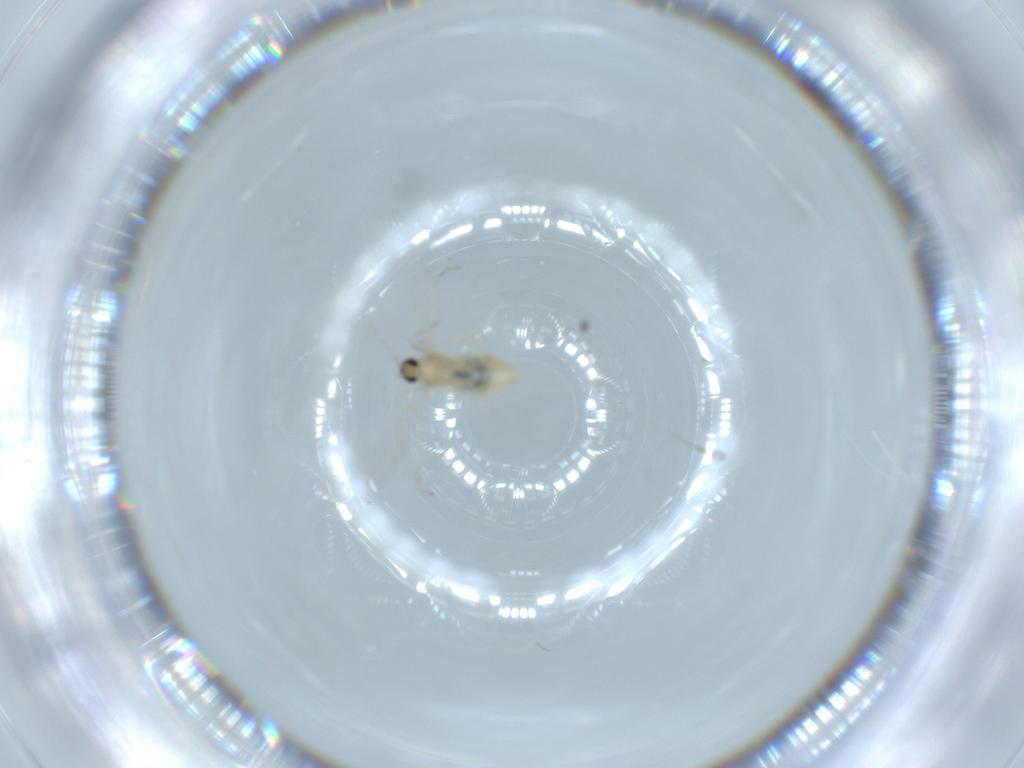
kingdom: Animalia
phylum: Arthropoda
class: Insecta
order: Diptera
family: Cecidomyiidae
